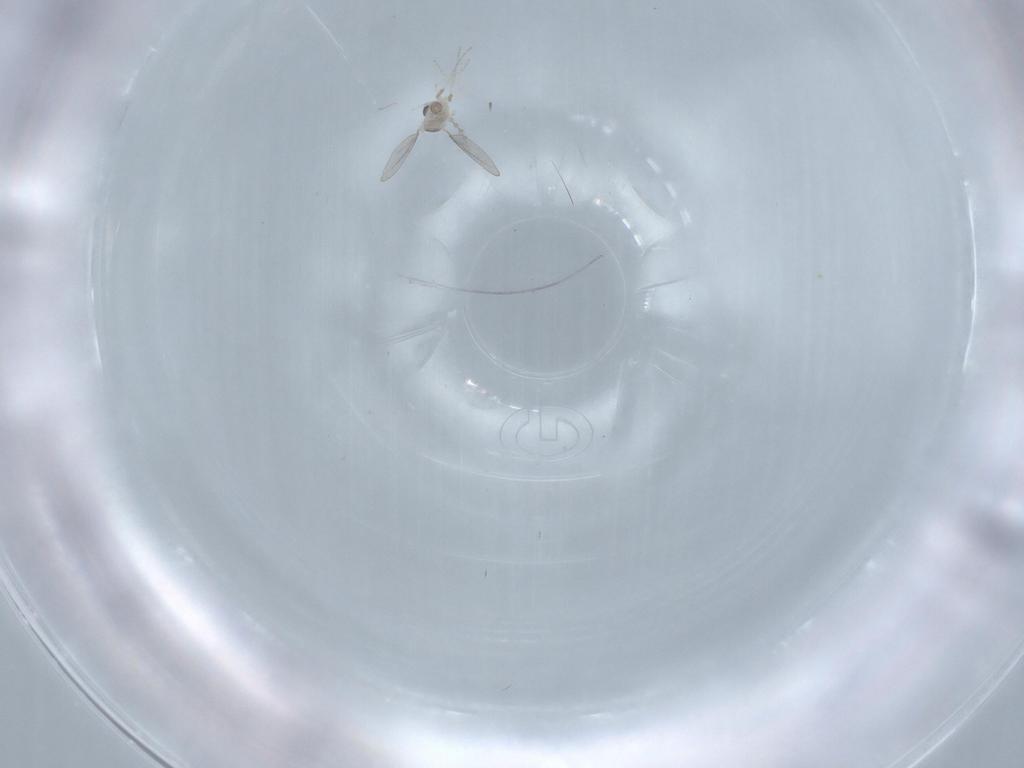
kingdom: Animalia
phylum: Arthropoda
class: Insecta
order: Diptera
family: Cecidomyiidae
